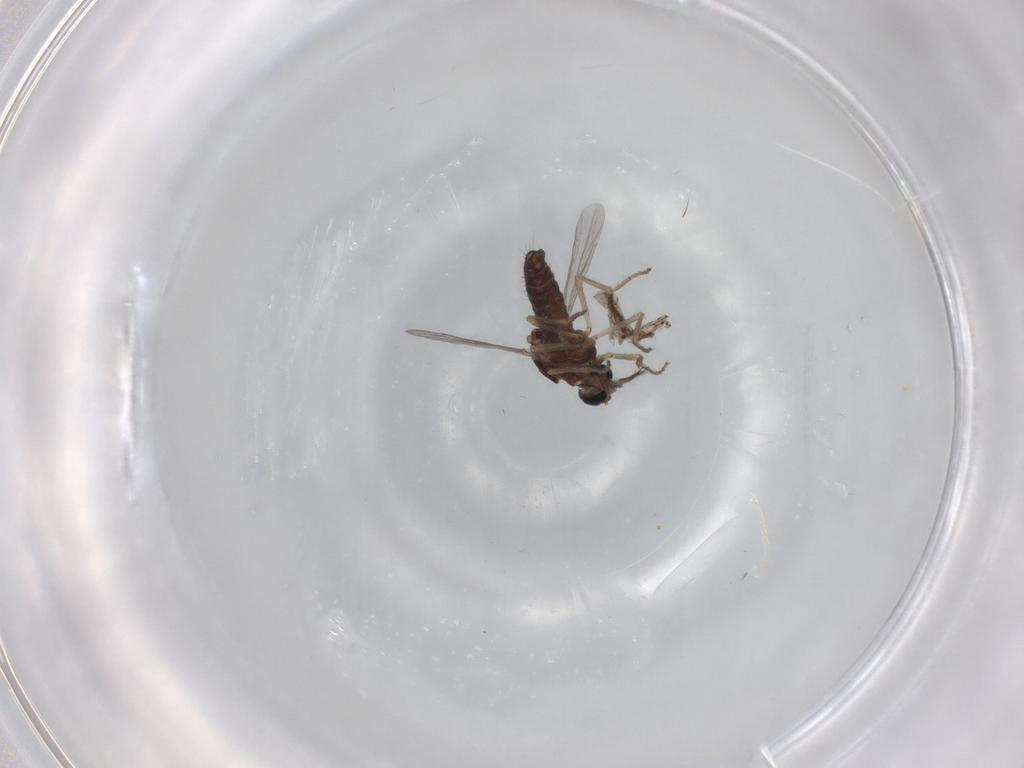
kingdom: Animalia
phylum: Arthropoda
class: Insecta
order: Diptera
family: Ceratopogonidae
